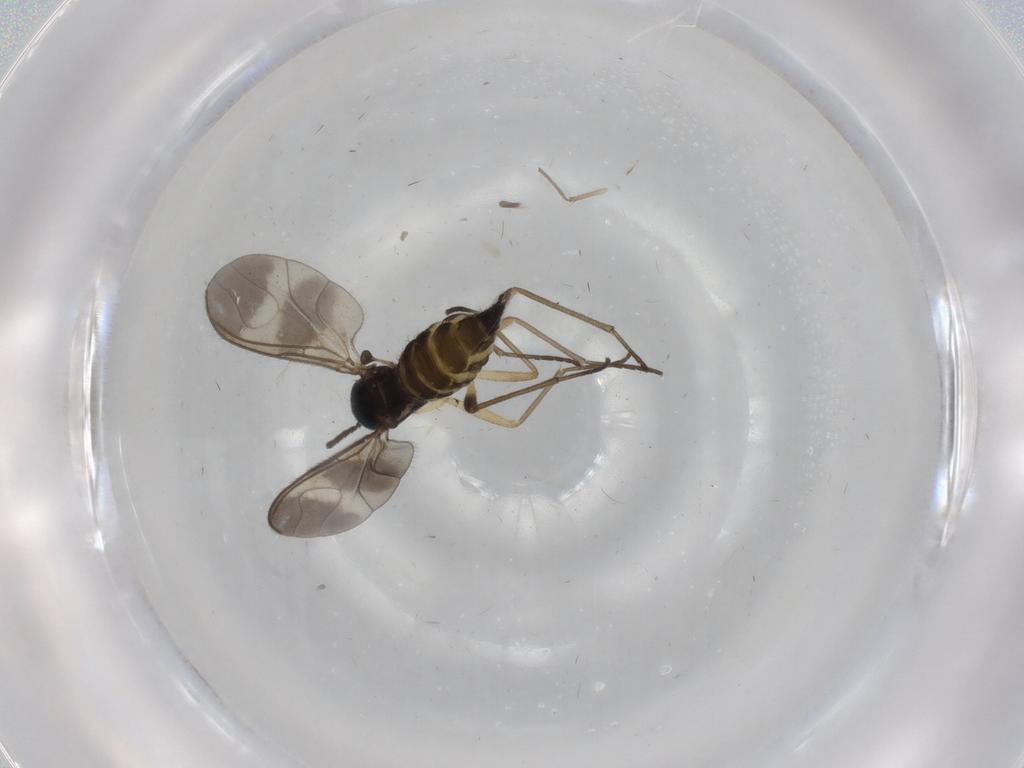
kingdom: Animalia
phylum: Arthropoda
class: Insecta
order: Diptera
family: Sciaridae
